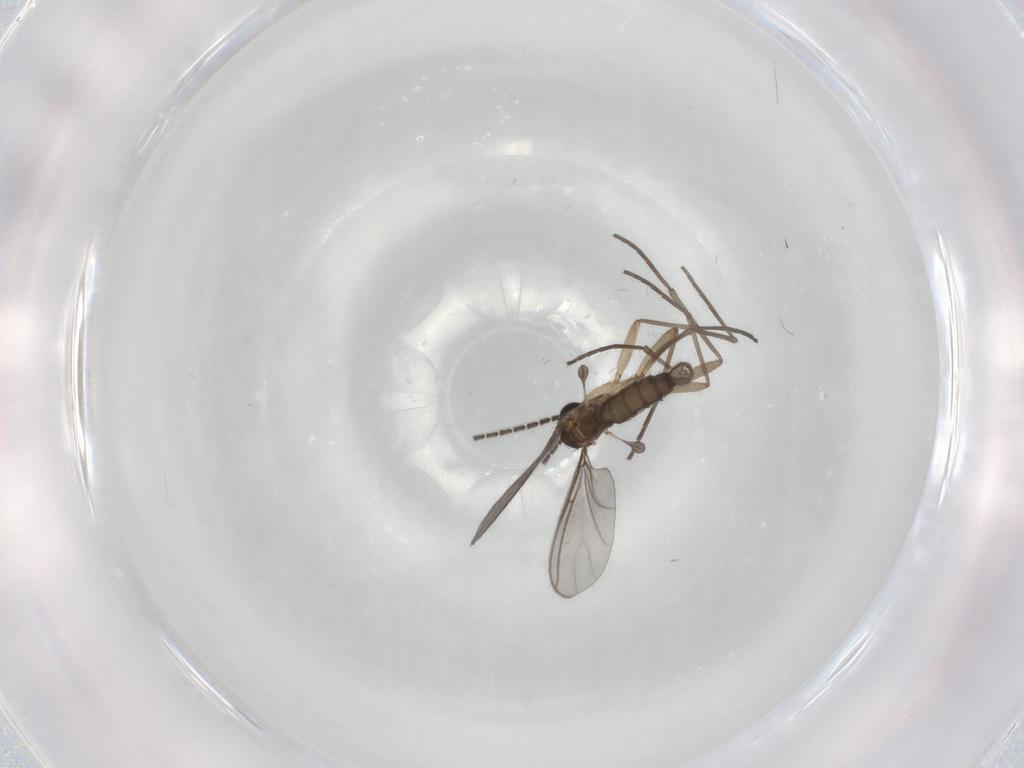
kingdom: Animalia
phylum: Arthropoda
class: Insecta
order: Diptera
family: Sciaridae
